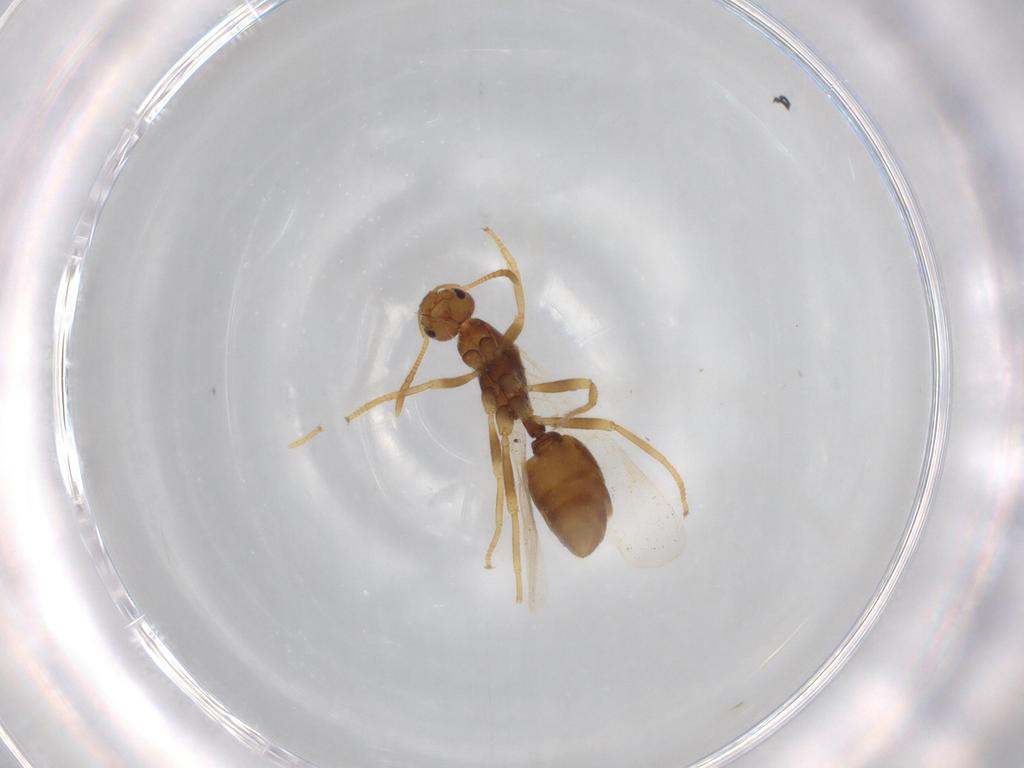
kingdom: Animalia
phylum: Arthropoda
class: Insecta
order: Hymenoptera
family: Formicidae
